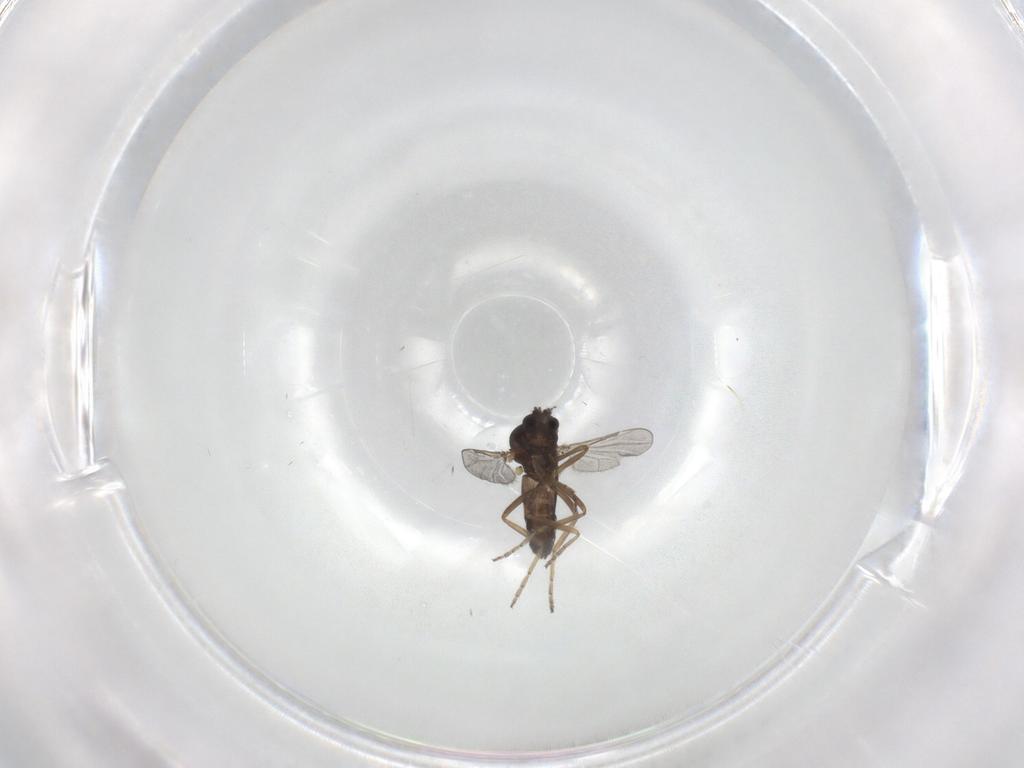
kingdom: Animalia
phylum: Arthropoda
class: Insecta
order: Diptera
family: Ceratopogonidae
